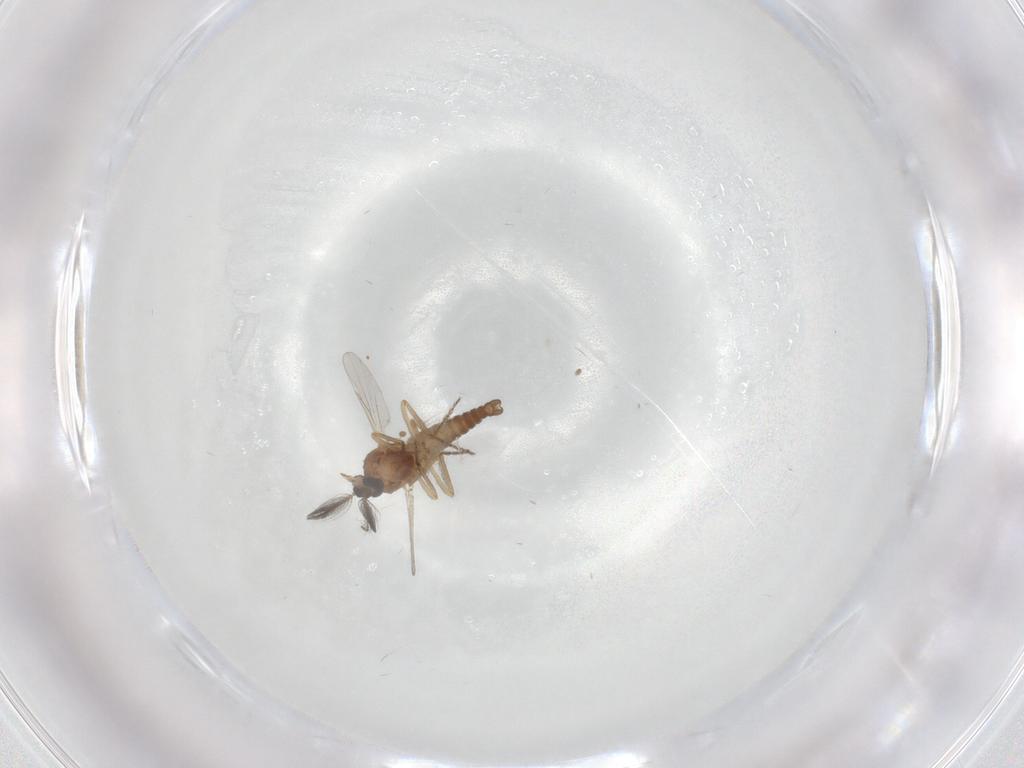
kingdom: Animalia
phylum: Arthropoda
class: Insecta
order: Diptera
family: Ceratopogonidae
